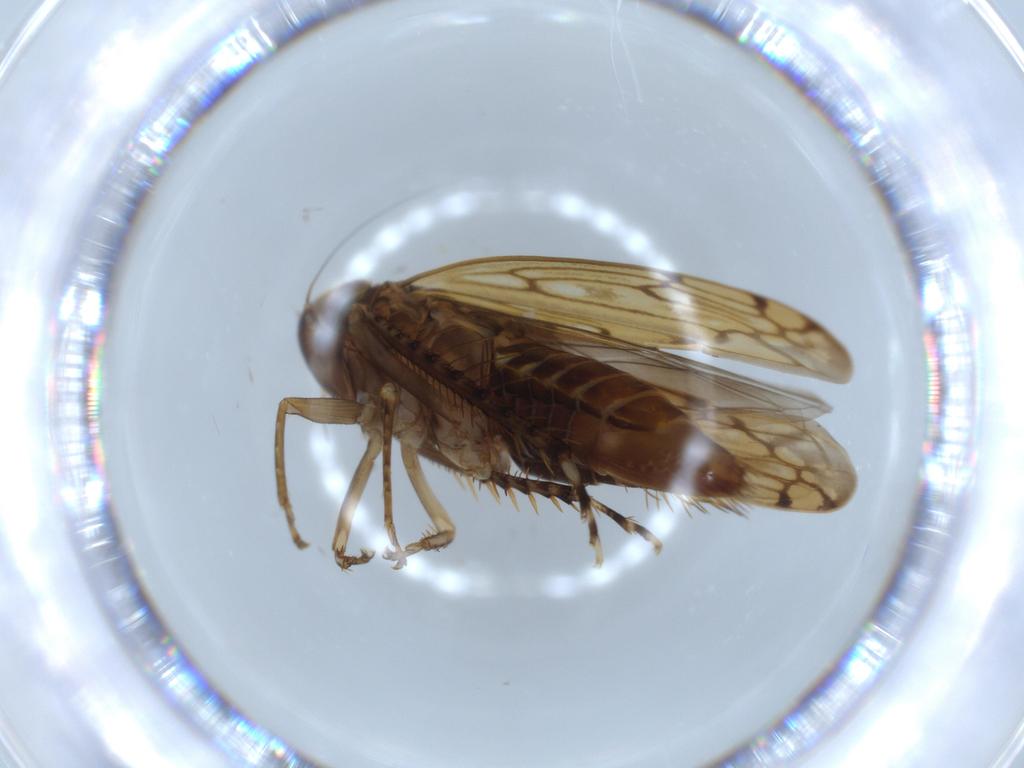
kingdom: Animalia
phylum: Arthropoda
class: Insecta
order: Hemiptera
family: Cicadellidae
